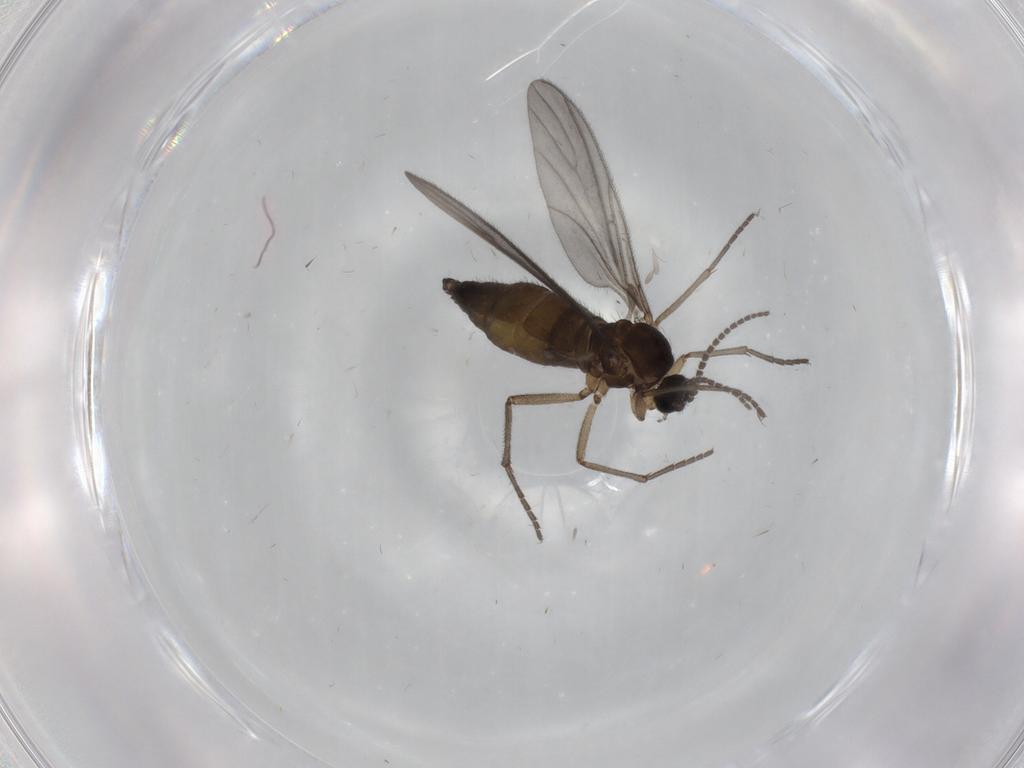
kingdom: Animalia
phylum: Arthropoda
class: Insecta
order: Diptera
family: Sciaridae
